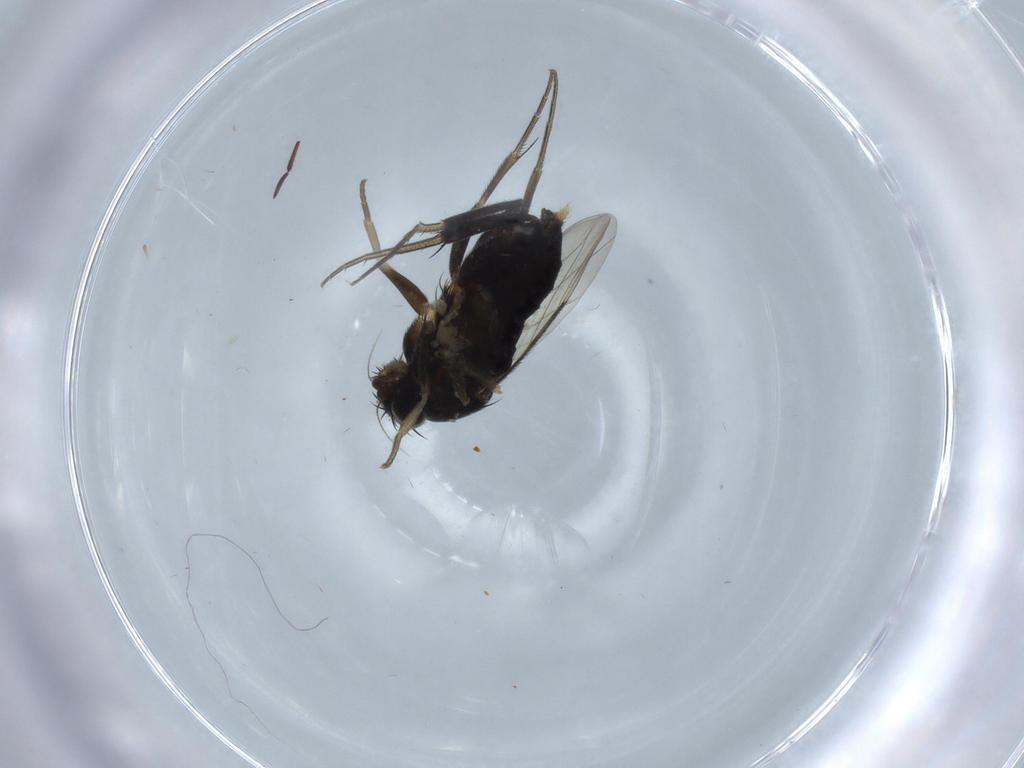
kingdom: Animalia
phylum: Arthropoda
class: Insecta
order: Diptera
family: Phoridae
